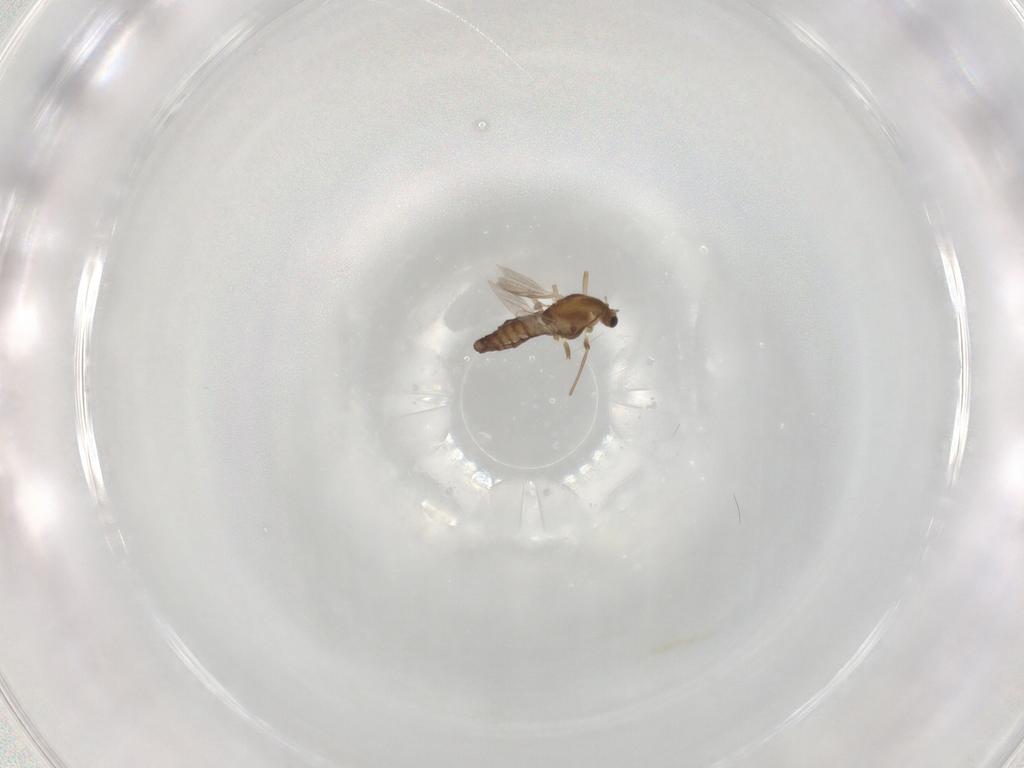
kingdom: Animalia
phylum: Arthropoda
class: Insecta
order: Diptera
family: Chironomidae
